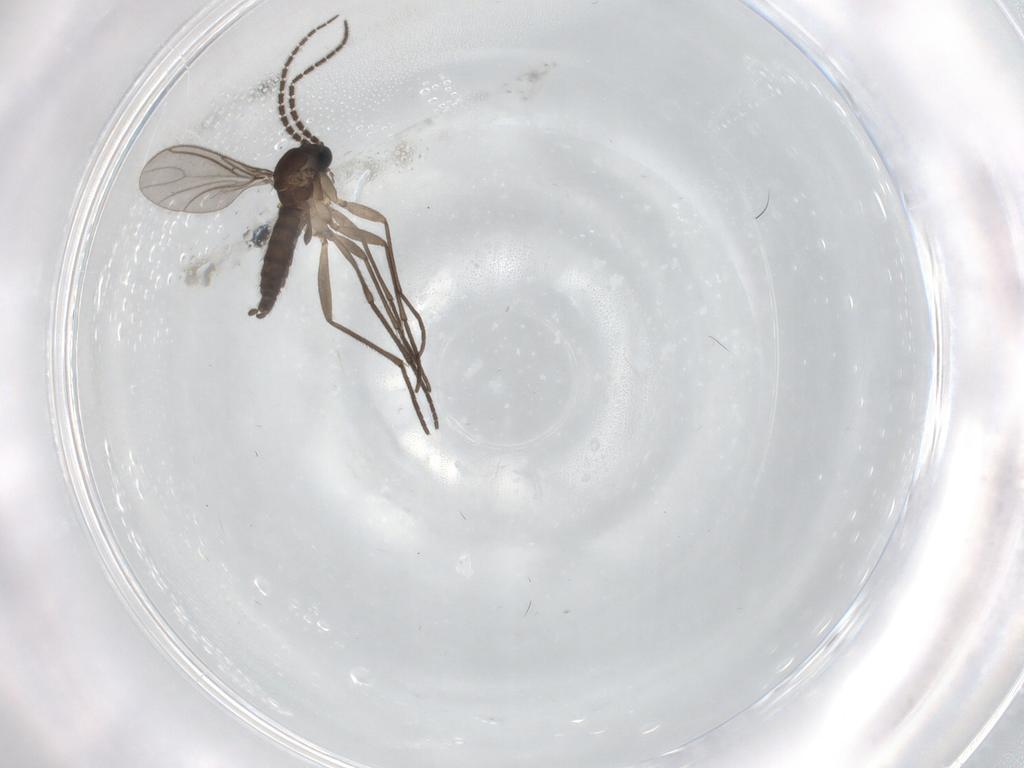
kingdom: Animalia
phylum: Arthropoda
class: Insecta
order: Diptera
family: Sciaridae
